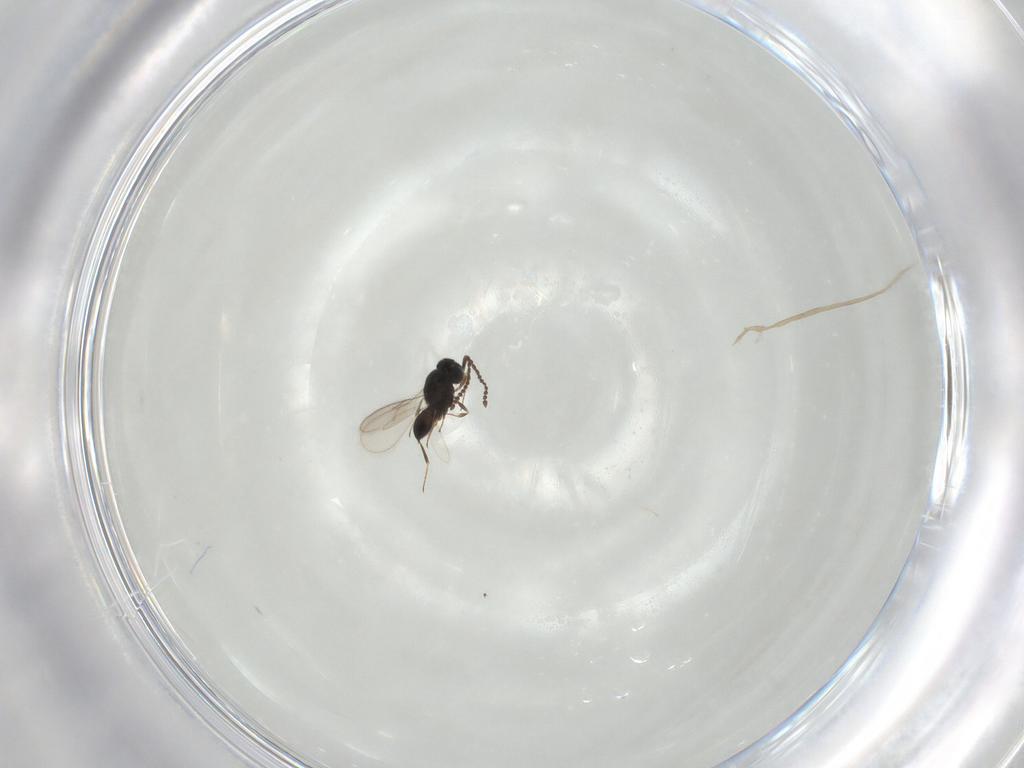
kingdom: Animalia
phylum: Arthropoda
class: Insecta
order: Hymenoptera
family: Scelionidae
